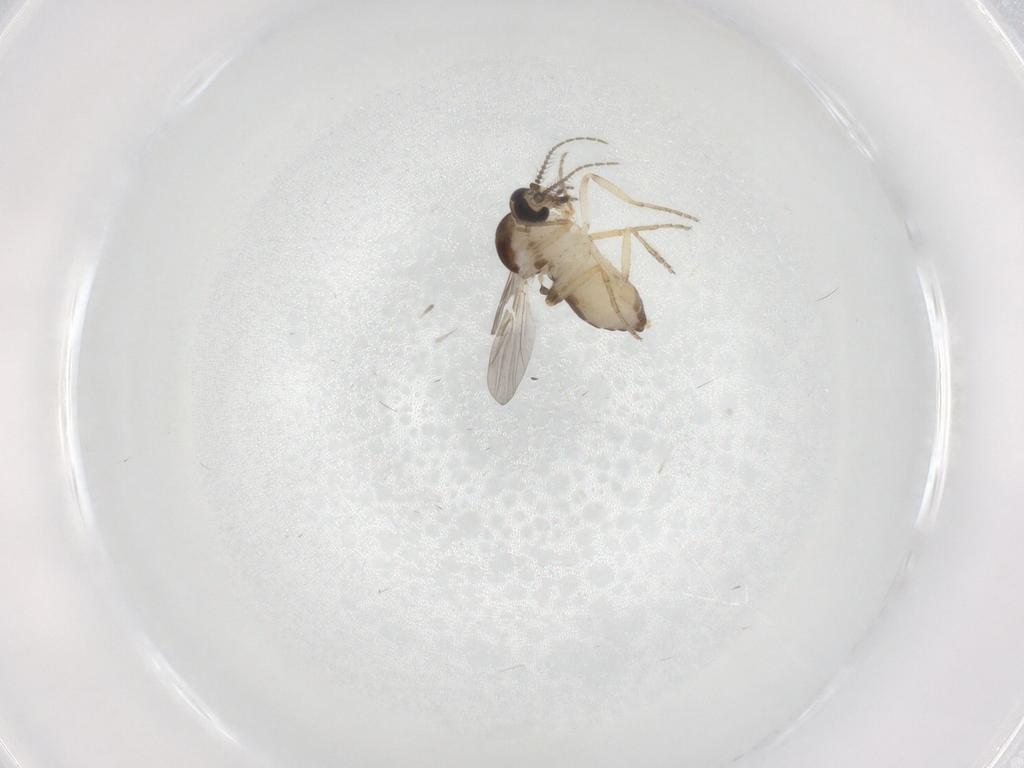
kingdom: Animalia
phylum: Arthropoda
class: Insecta
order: Diptera
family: Ceratopogonidae
